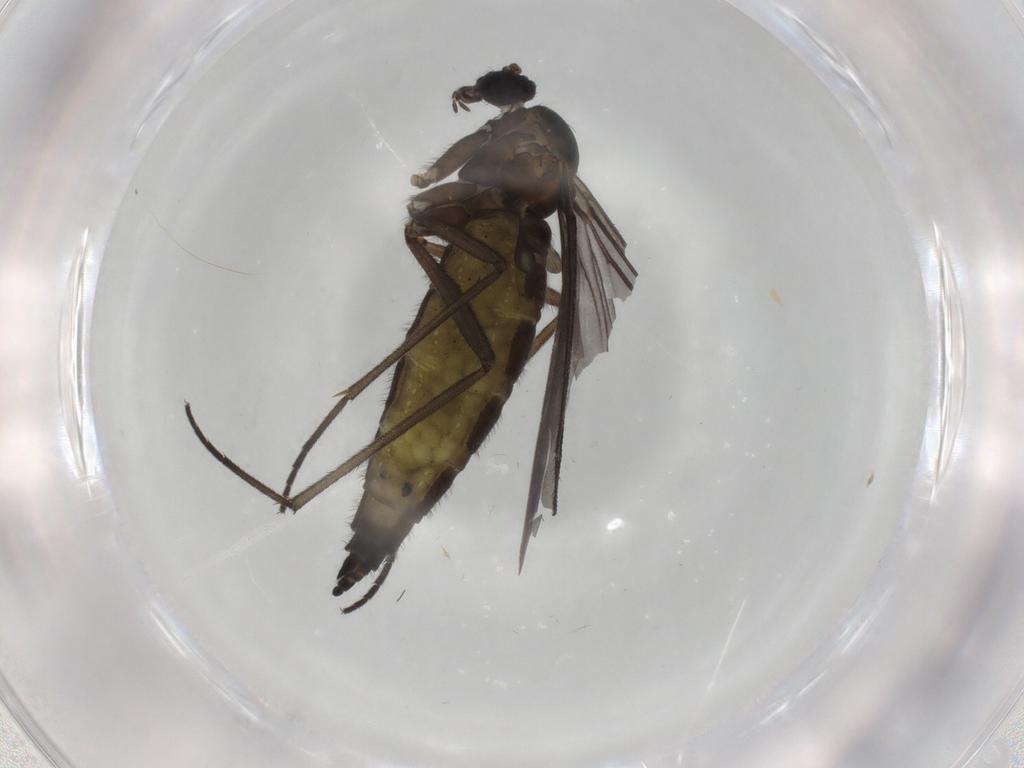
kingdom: Animalia
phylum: Arthropoda
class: Insecta
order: Diptera
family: Sciaridae
